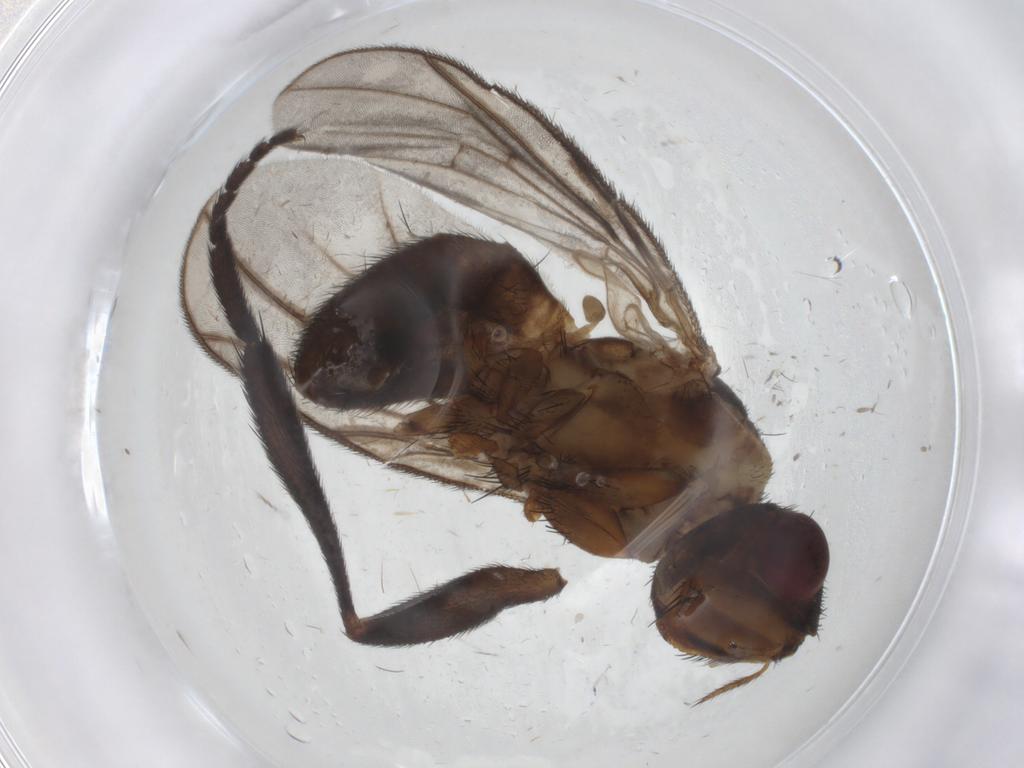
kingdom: Animalia
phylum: Arthropoda
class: Insecta
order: Diptera
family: Calliphoridae
